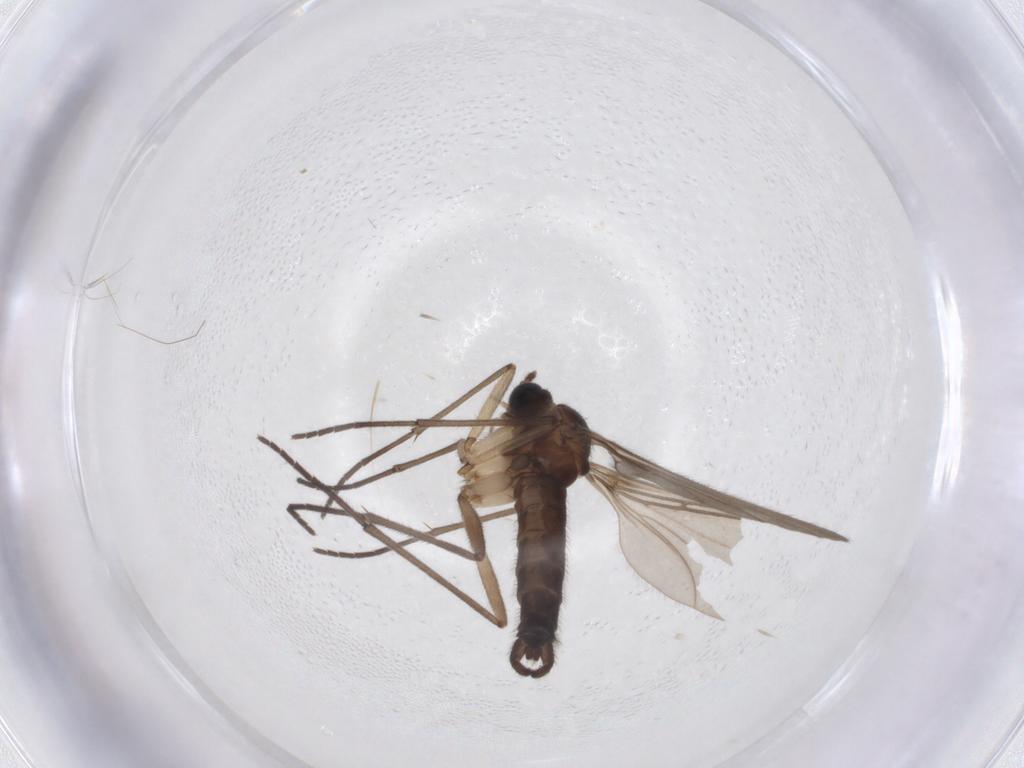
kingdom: Animalia
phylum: Arthropoda
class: Insecta
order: Diptera
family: Sciaridae
